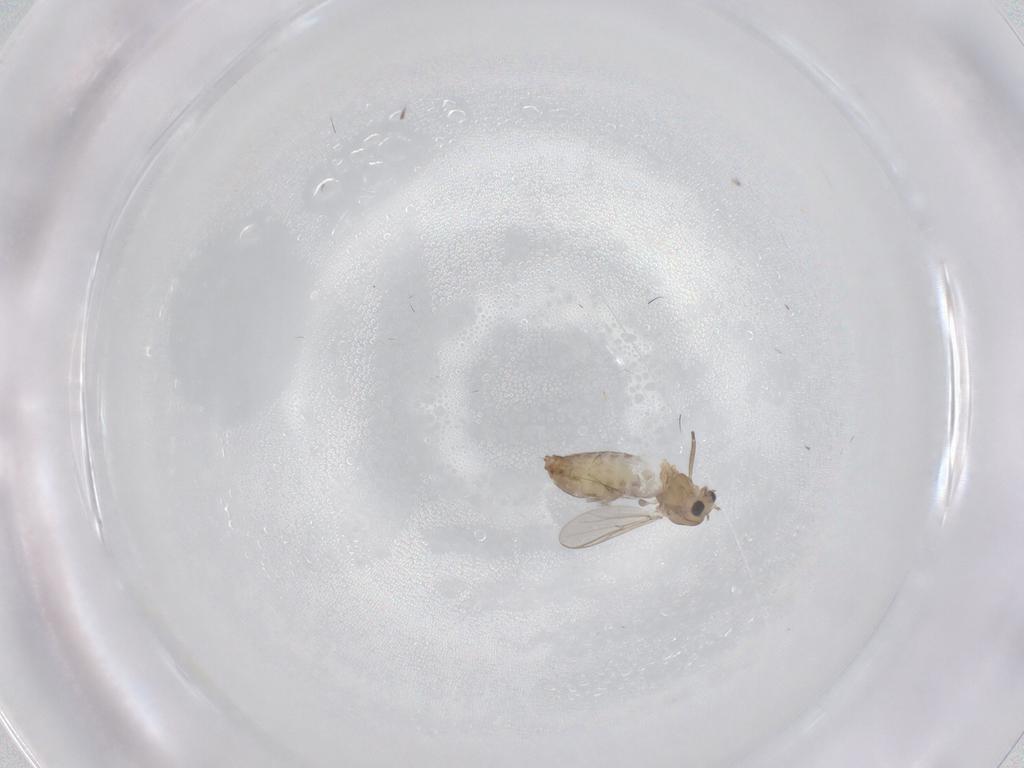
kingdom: Animalia
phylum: Arthropoda
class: Insecta
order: Diptera
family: Chironomidae
